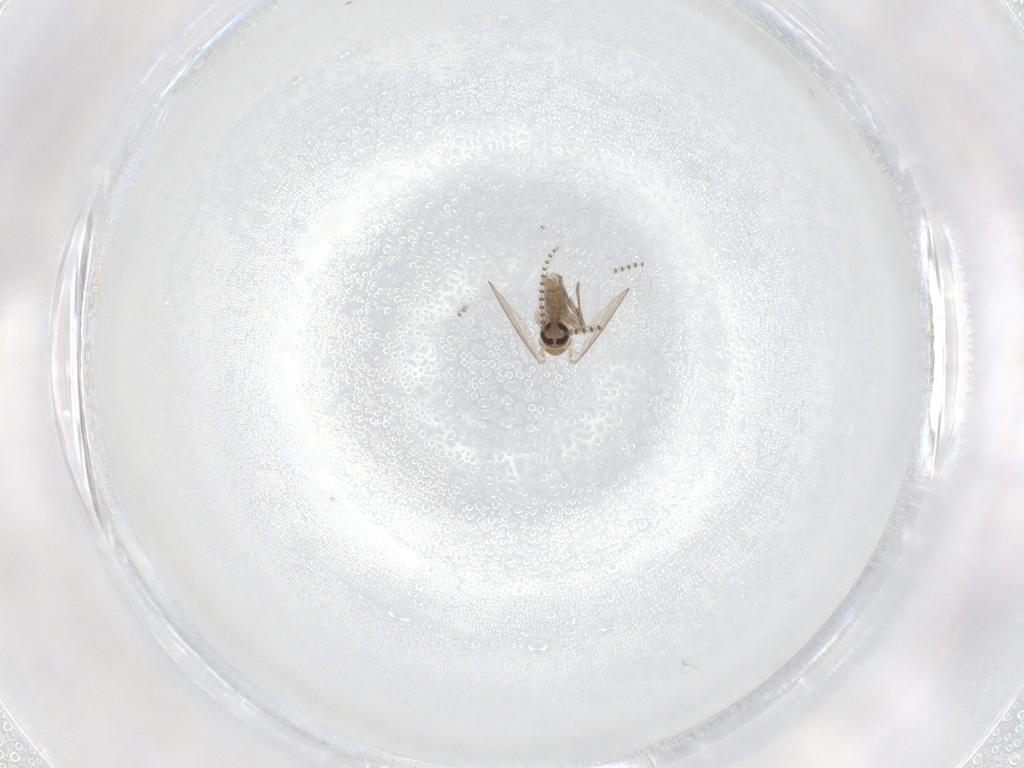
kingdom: Animalia
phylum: Arthropoda
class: Insecta
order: Diptera
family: Sciaridae
